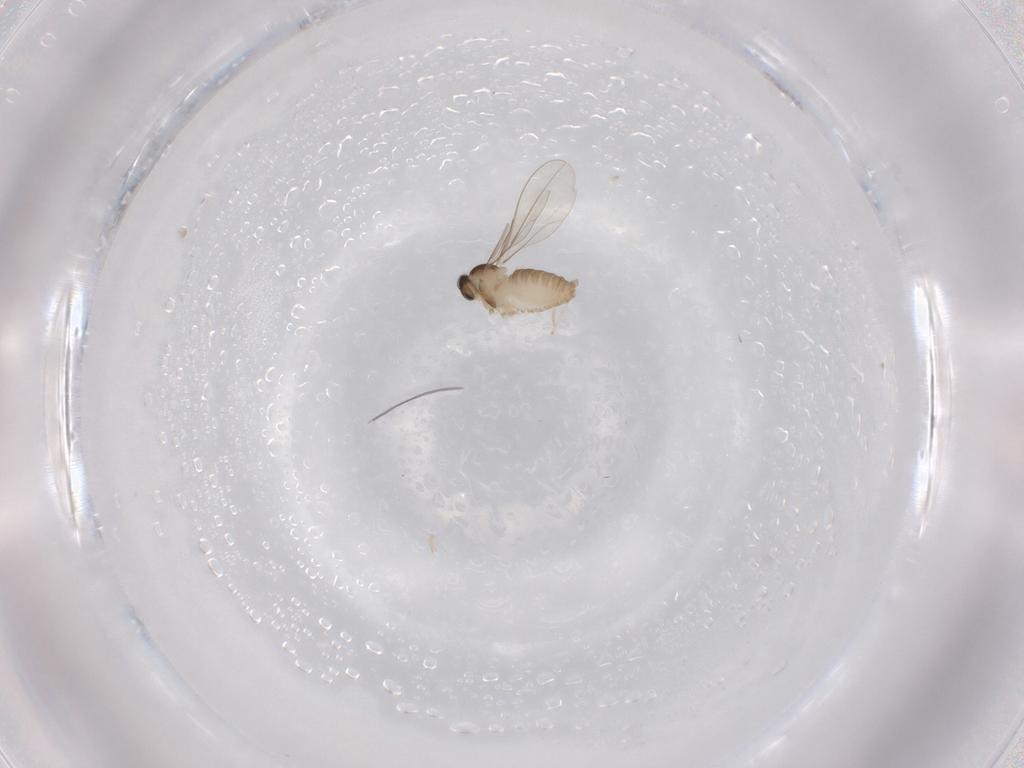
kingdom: Animalia
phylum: Arthropoda
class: Insecta
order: Diptera
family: Cecidomyiidae
